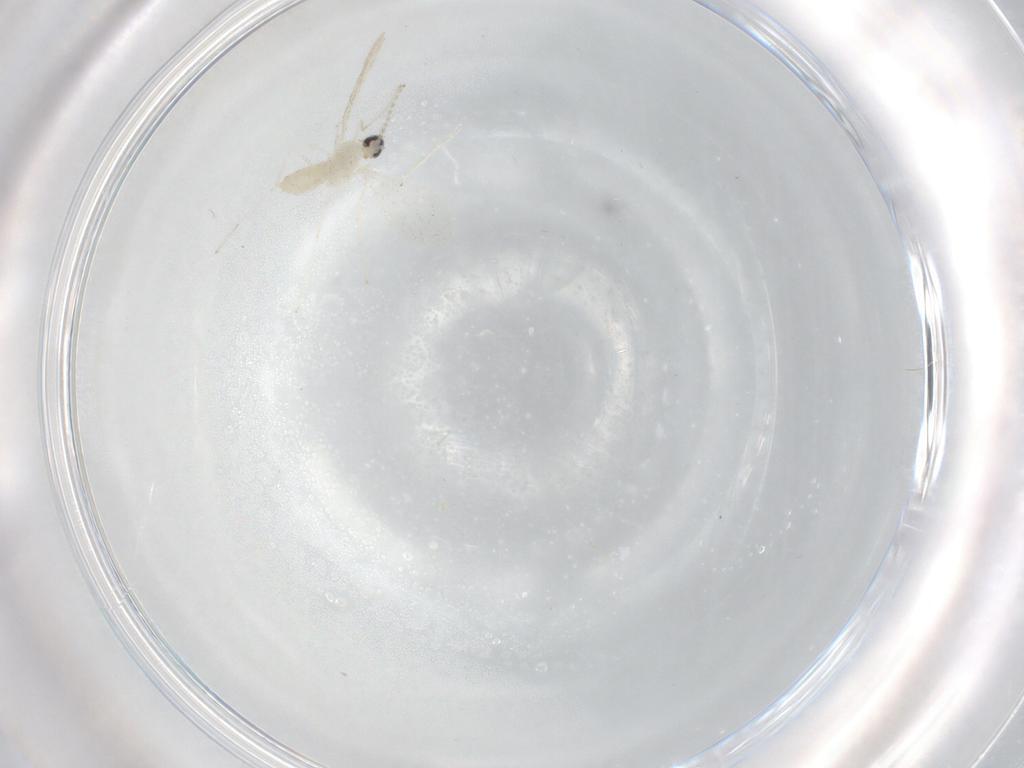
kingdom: Animalia
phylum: Arthropoda
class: Insecta
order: Diptera
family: Cecidomyiidae
